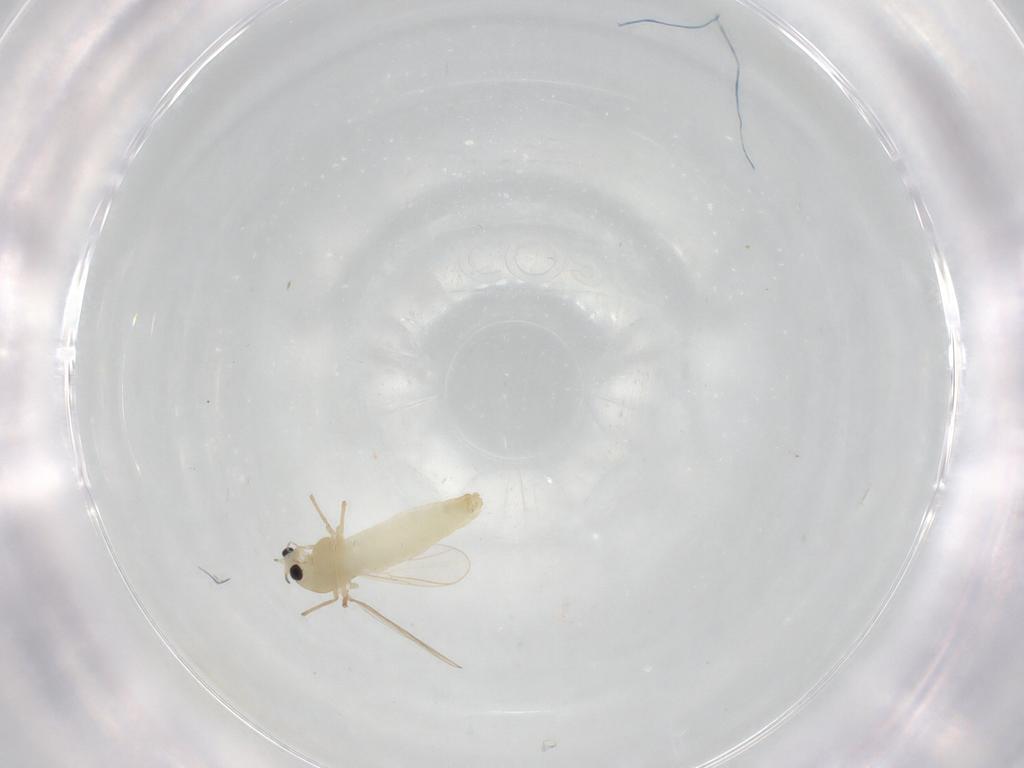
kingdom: Animalia
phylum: Arthropoda
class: Insecta
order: Diptera
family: Chironomidae
